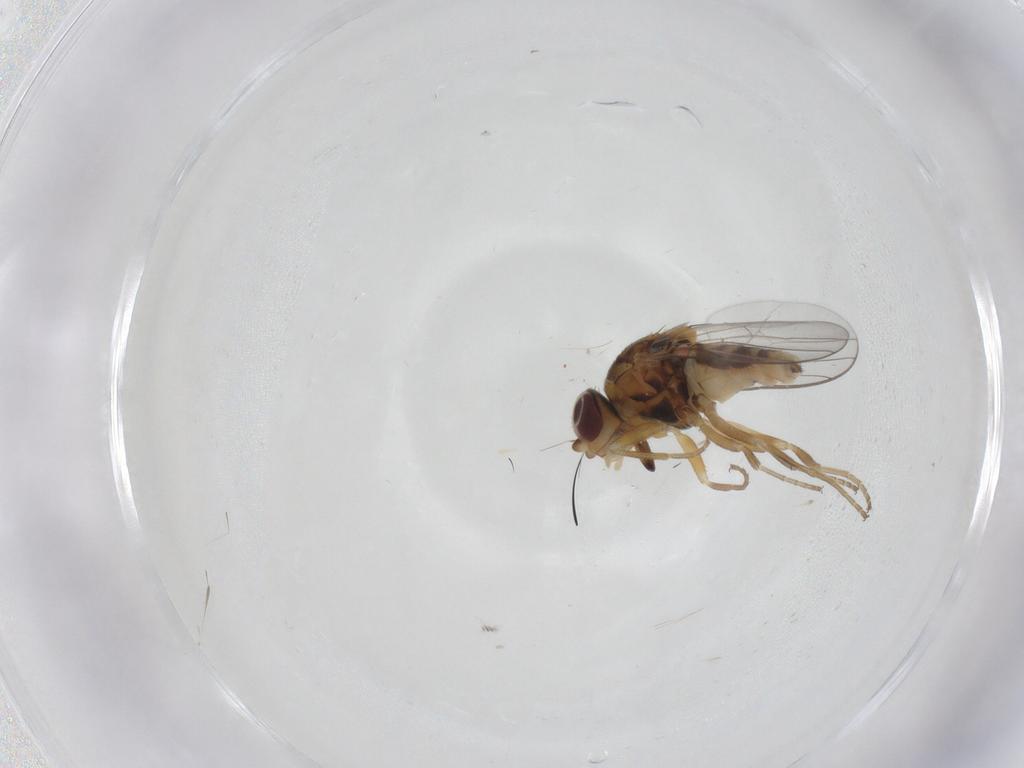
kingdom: Animalia
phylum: Arthropoda
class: Insecta
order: Diptera
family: Chloropidae
